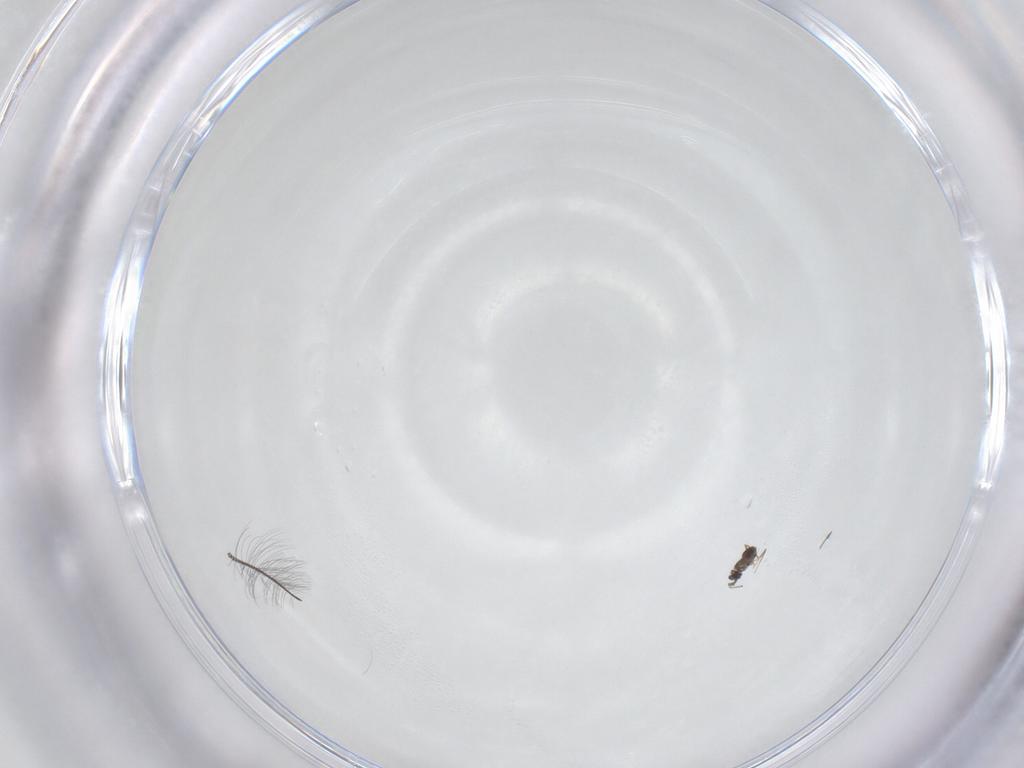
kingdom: Animalia
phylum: Arthropoda
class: Insecta
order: Hymenoptera
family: Mymaridae
